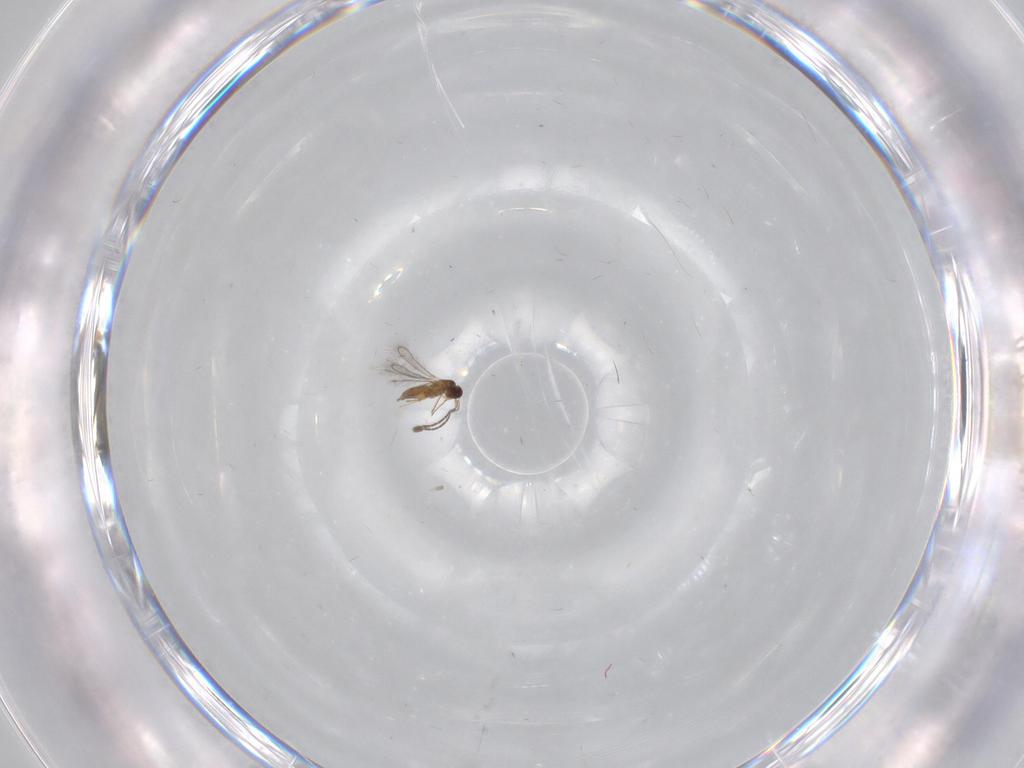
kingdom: Animalia
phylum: Arthropoda
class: Insecta
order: Hymenoptera
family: Mymaridae
